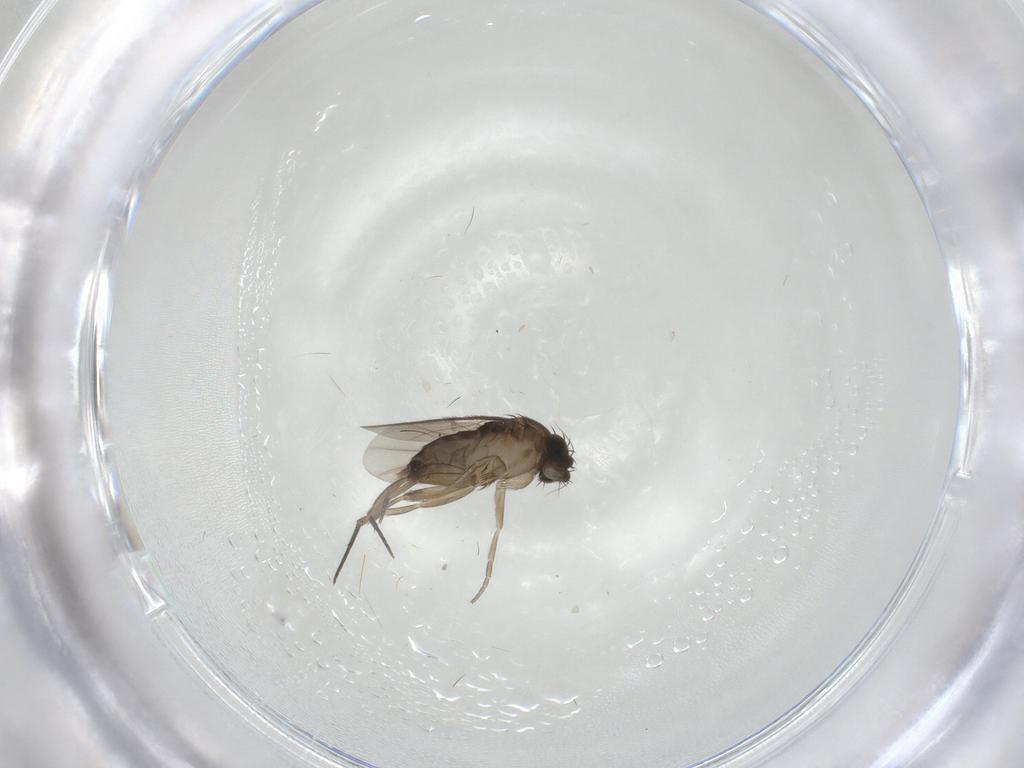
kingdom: Animalia
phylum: Arthropoda
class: Insecta
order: Diptera
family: Phoridae
